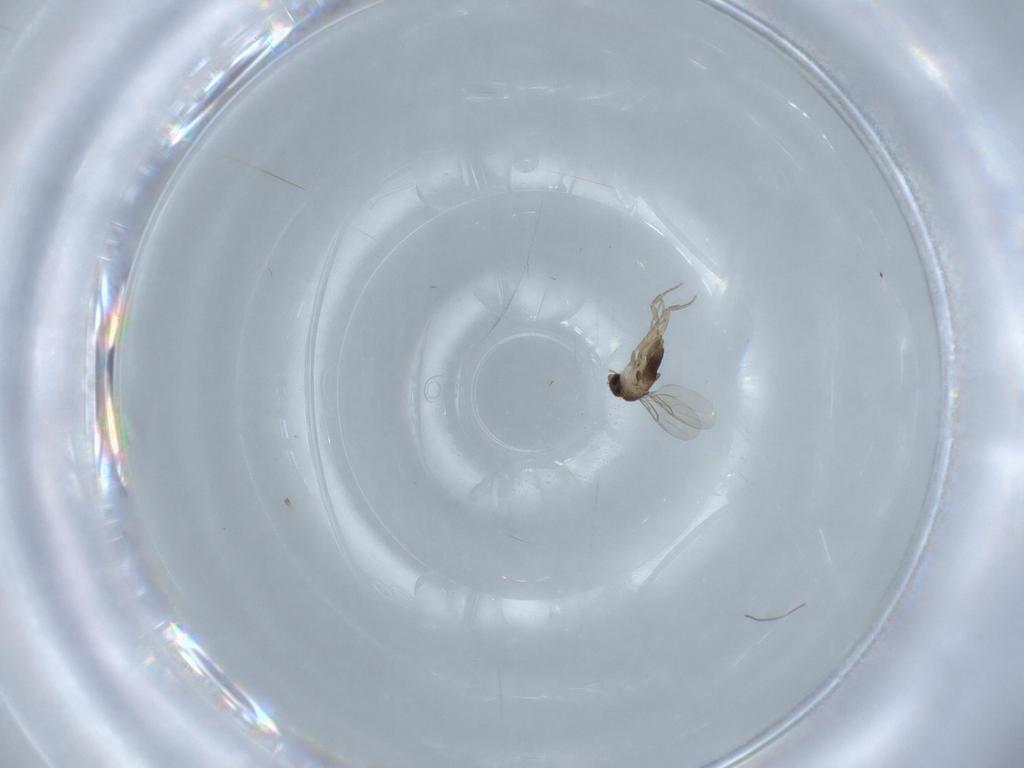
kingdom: Animalia
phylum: Arthropoda
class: Insecta
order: Diptera
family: Phoridae
